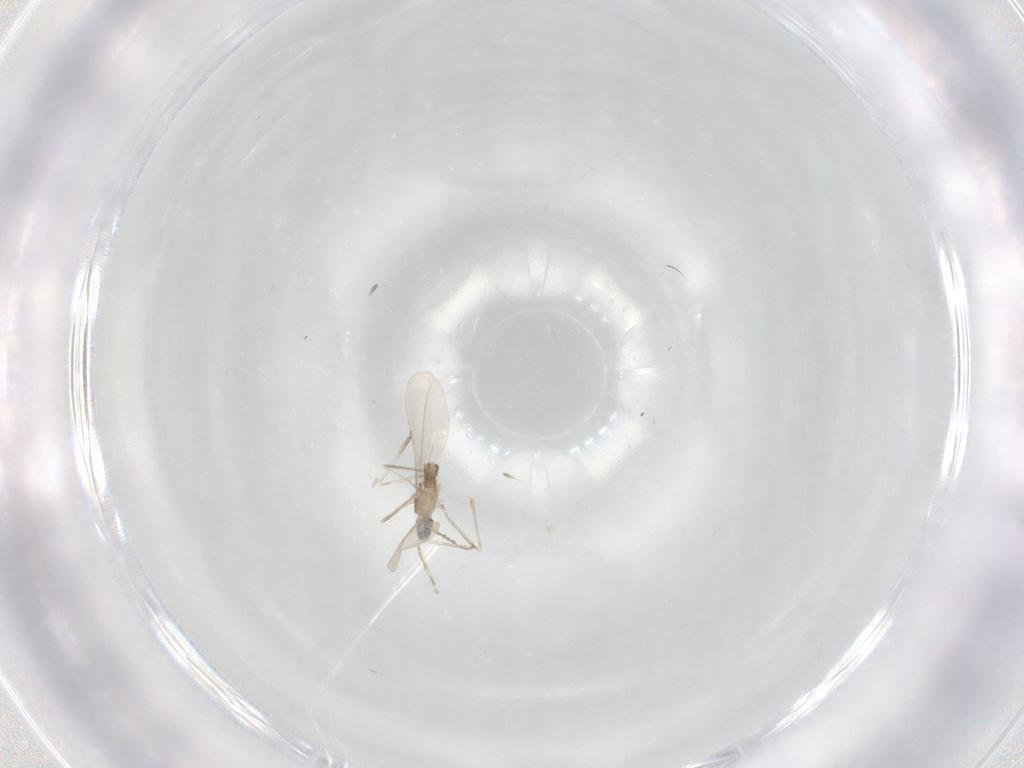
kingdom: Animalia
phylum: Arthropoda
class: Insecta
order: Diptera
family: Cecidomyiidae
